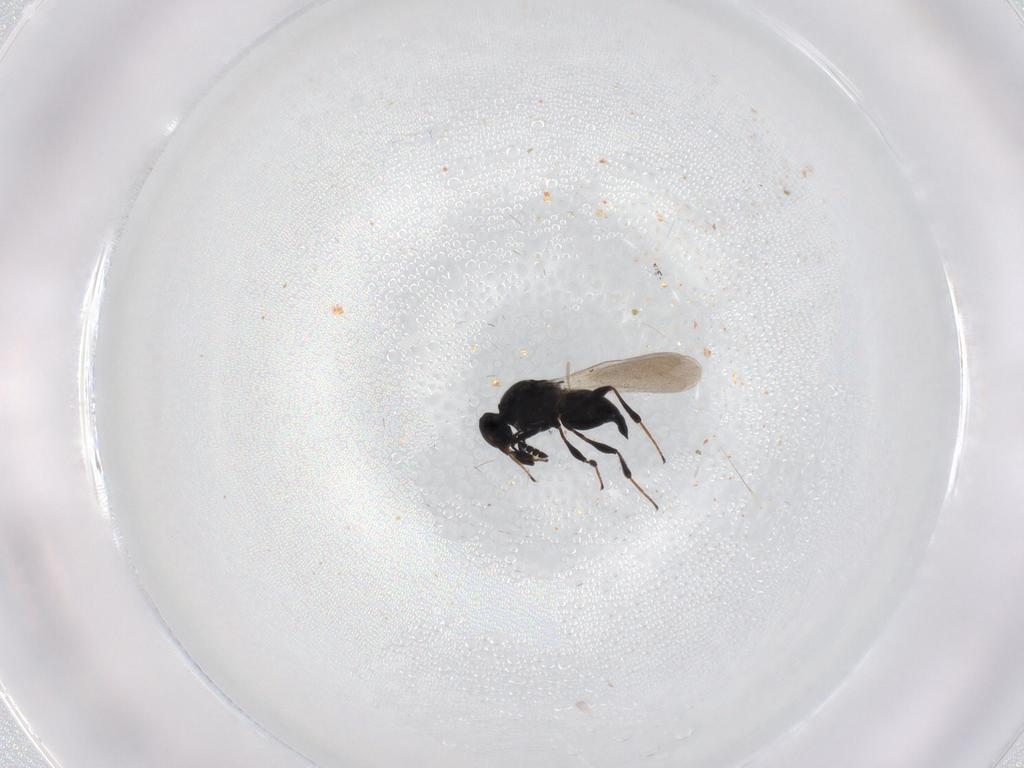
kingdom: Animalia
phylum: Arthropoda
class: Insecta
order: Hymenoptera
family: Platygastridae
